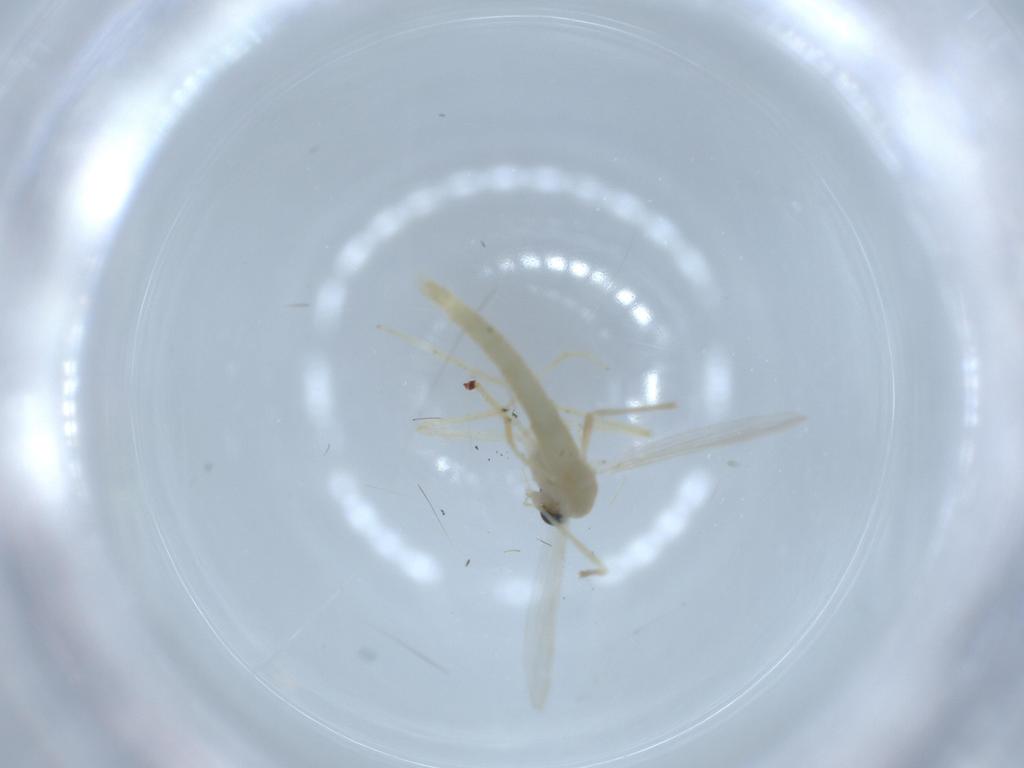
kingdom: Animalia
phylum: Arthropoda
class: Insecta
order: Diptera
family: Chironomidae
